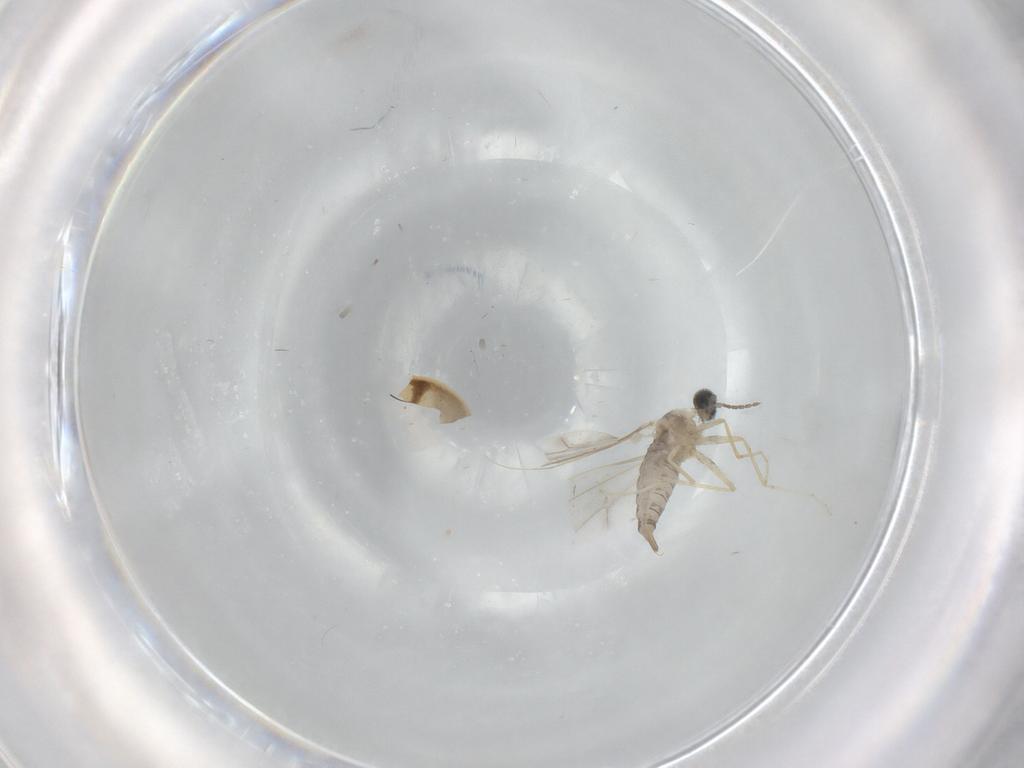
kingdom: Animalia
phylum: Arthropoda
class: Insecta
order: Diptera
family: Cecidomyiidae
